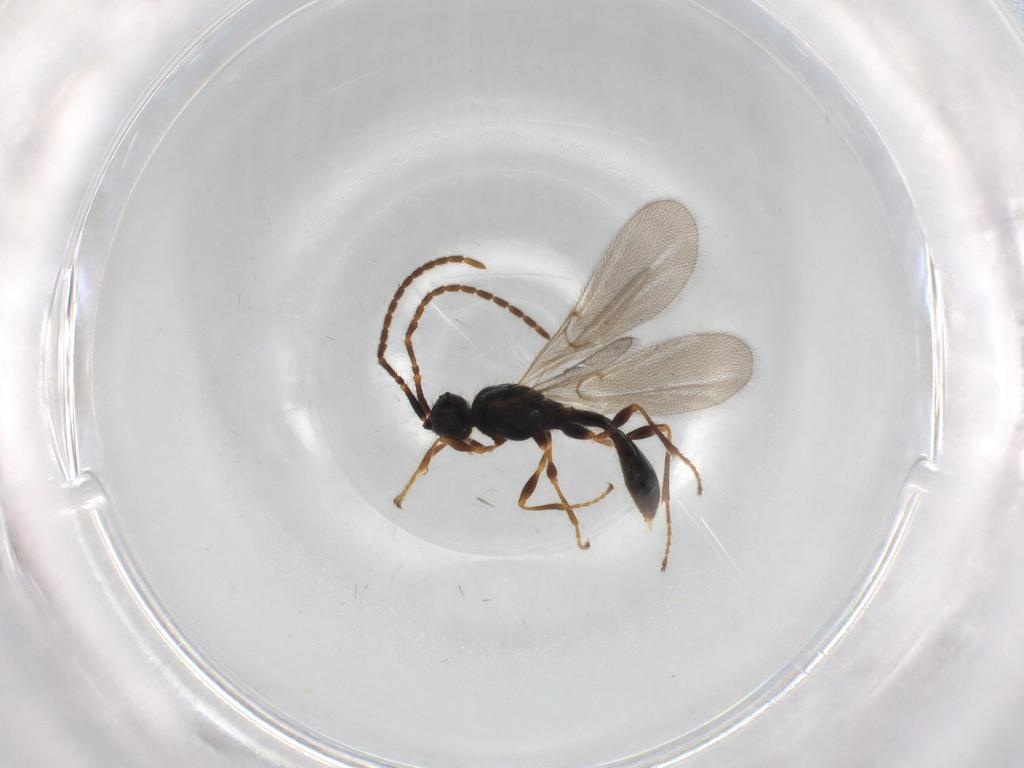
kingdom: Animalia
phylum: Arthropoda
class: Insecta
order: Hymenoptera
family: Diapriidae
